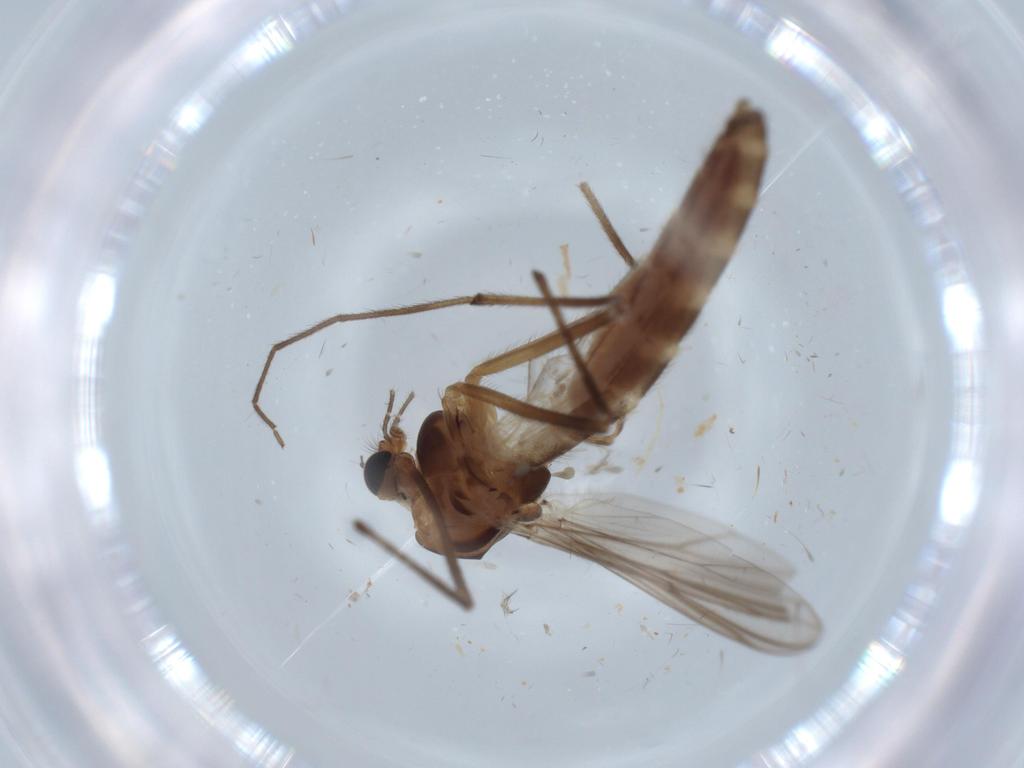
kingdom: Animalia
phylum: Arthropoda
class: Insecta
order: Diptera
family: Chironomidae
